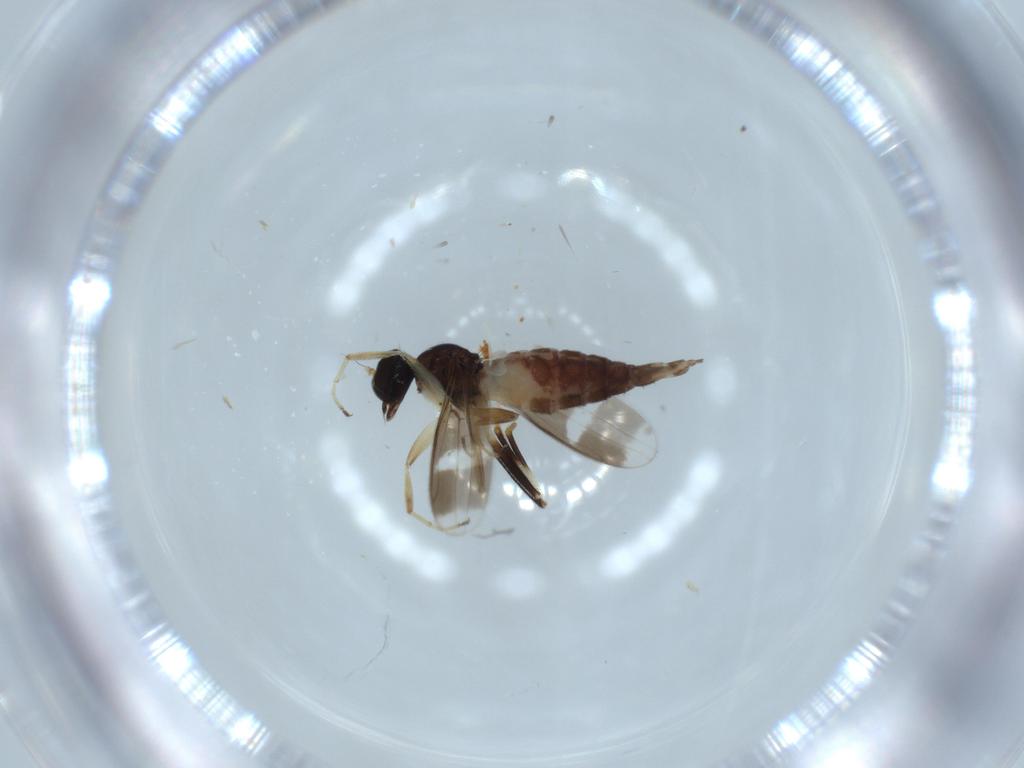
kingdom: Animalia
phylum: Arthropoda
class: Insecta
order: Diptera
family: Hybotidae
